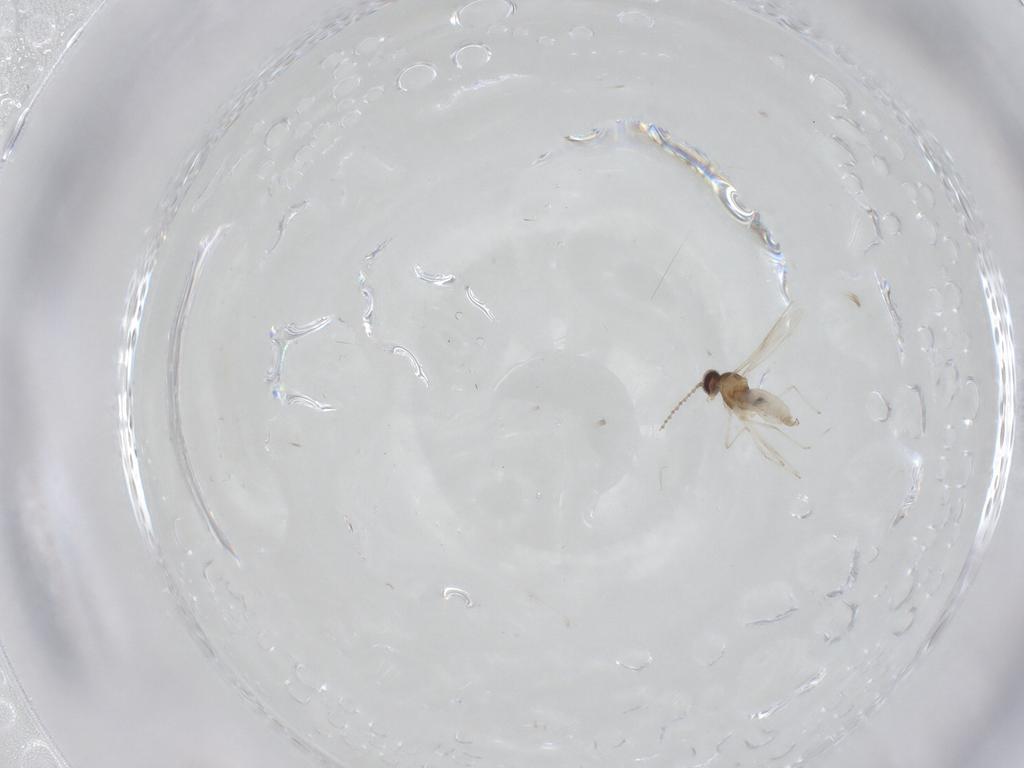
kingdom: Animalia
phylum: Arthropoda
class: Insecta
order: Diptera
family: Cecidomyiidae
